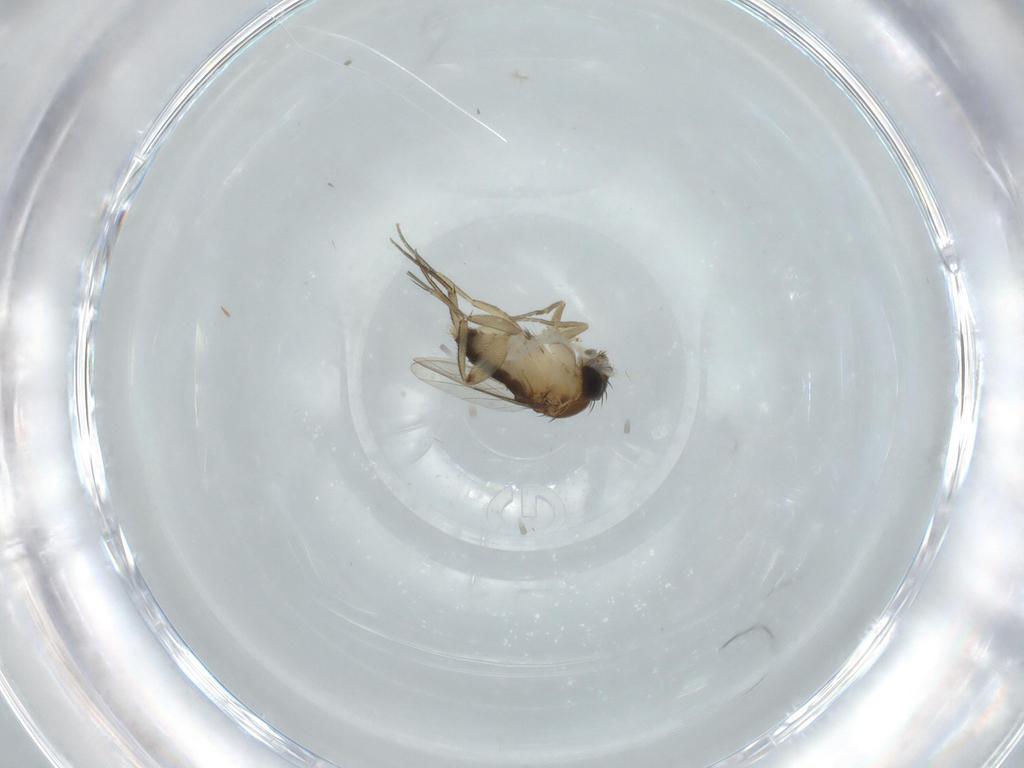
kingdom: Animalia
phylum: Arthropoda
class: Insecta
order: Diptera
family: Phoridae
